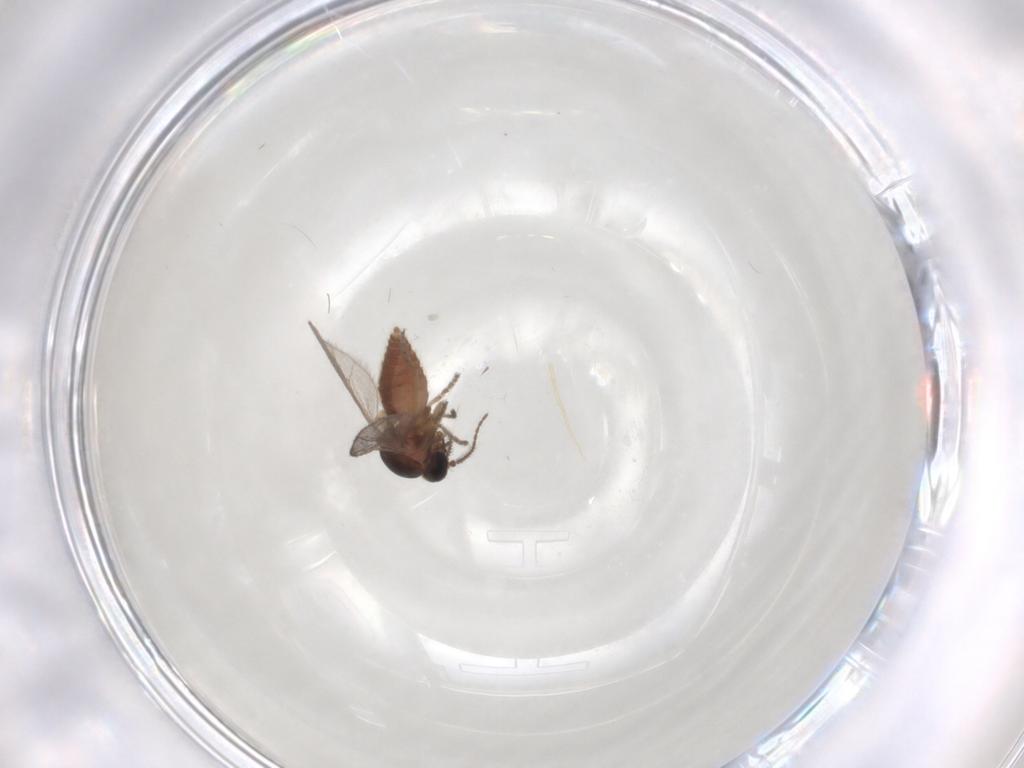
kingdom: Animalia
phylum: Arthropoda
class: Insecta
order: Diptera
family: Ceratopogonidae
